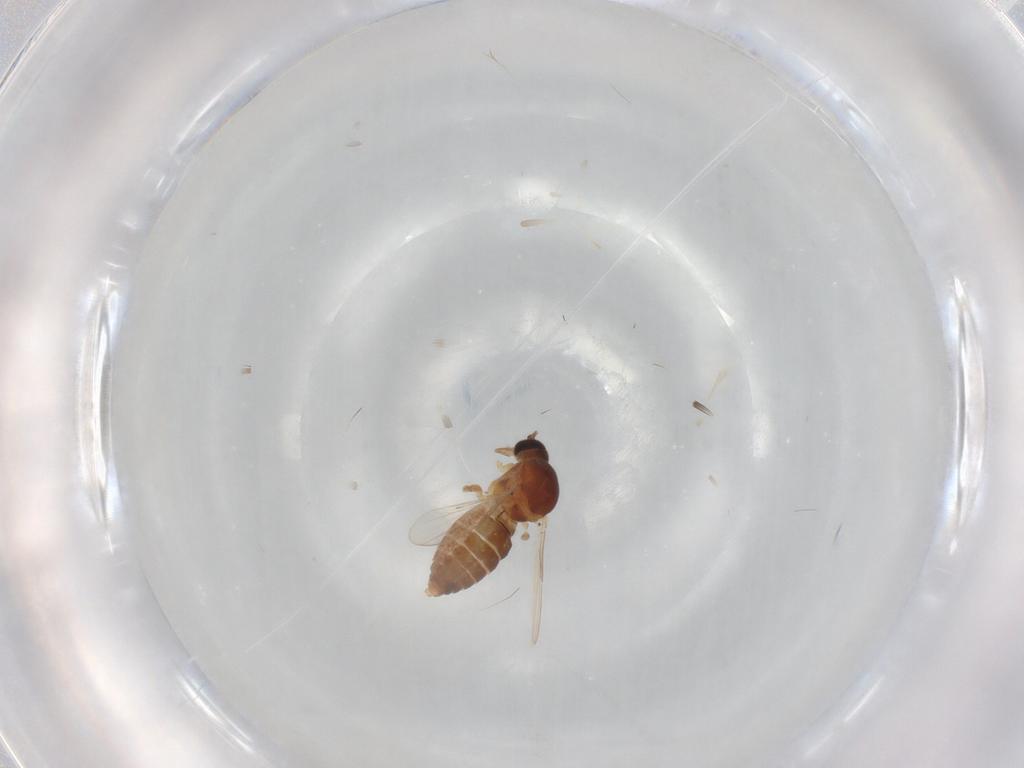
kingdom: Animalia
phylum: Arthropoda
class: Insecta
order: Diptera
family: Ceratopogonidae
